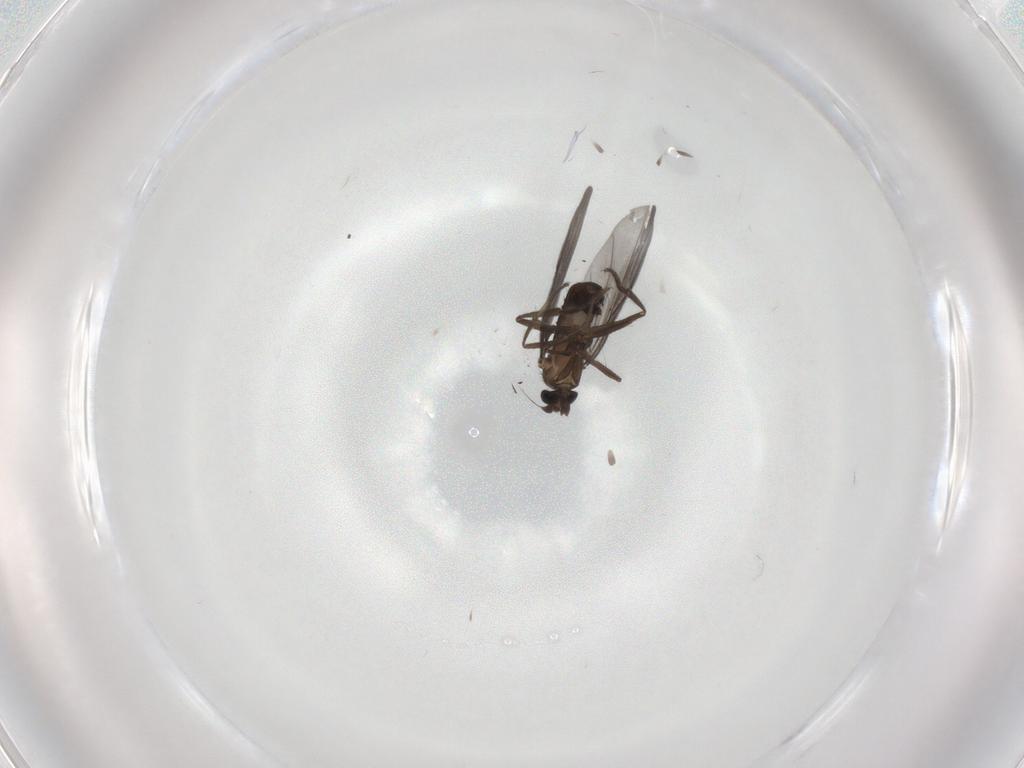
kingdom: Animalia
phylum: Arthropoda
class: Insecta
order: Diptera
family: Phoridae
